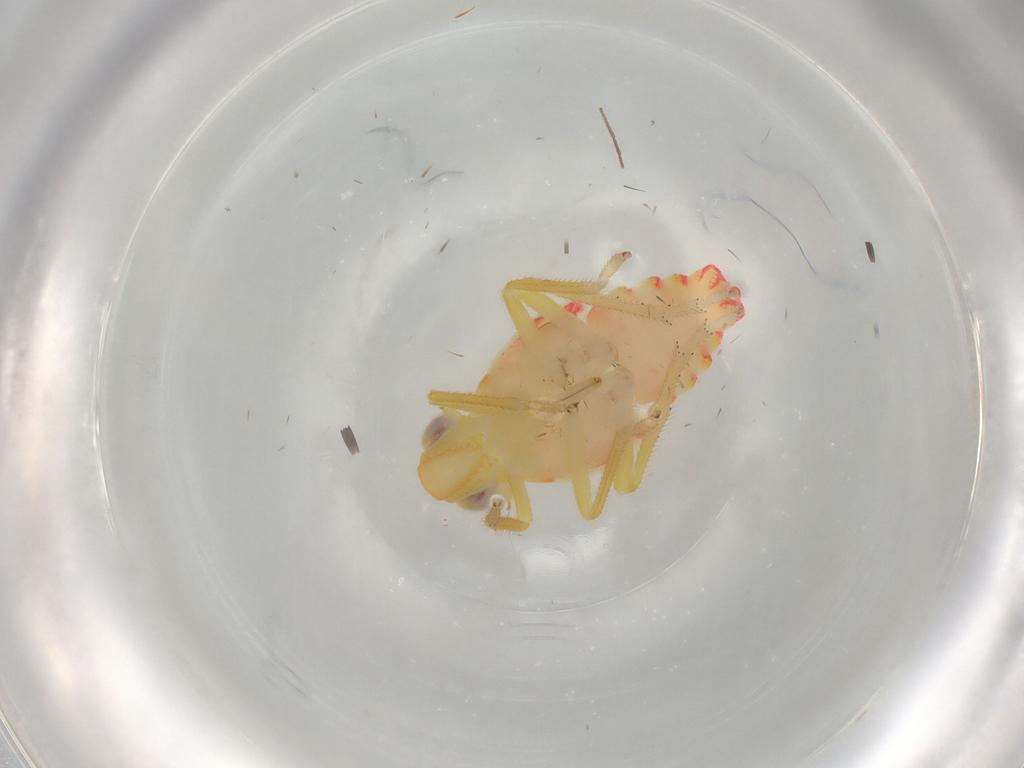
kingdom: Animalia
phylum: Arthropoda
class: Insecta
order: Hemiptera
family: Tropiduchidae
